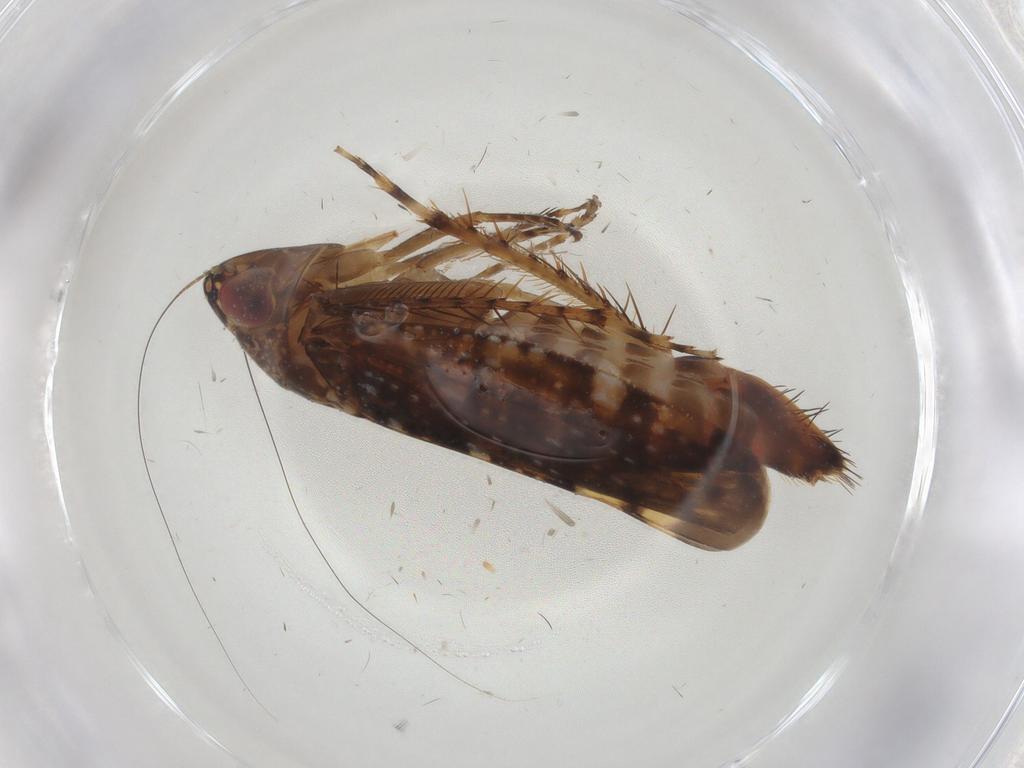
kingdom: Animalia
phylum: Arthropoda
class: Insecta
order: Hemiptera
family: Cicadellidae
